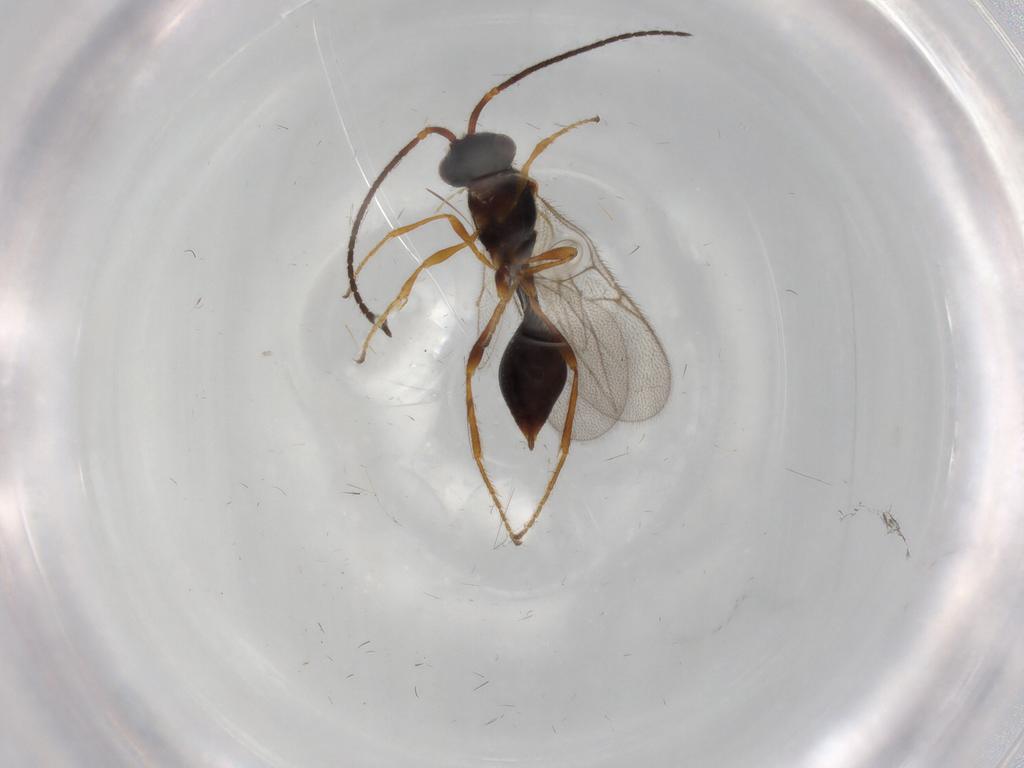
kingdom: Animalia
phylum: Arthropoda
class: Insecta
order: Hymenoptera
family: Diapriidae
